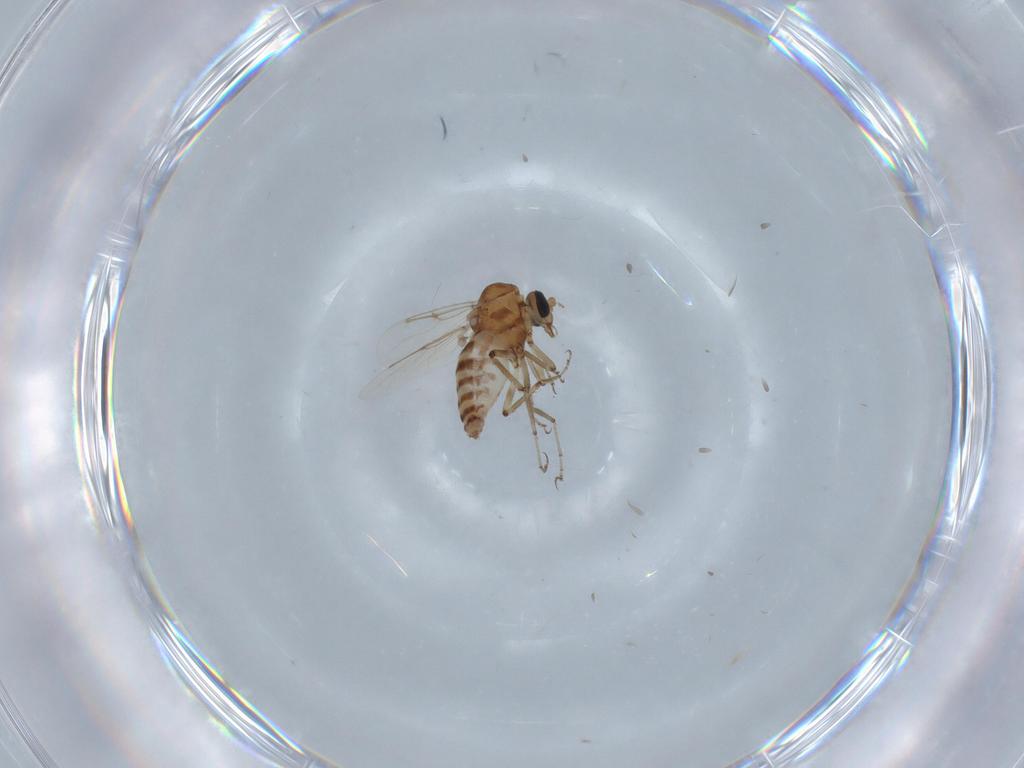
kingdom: Animalia
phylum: Arthropoda
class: Insecta
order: Diptera
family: Ceratopogonidae
